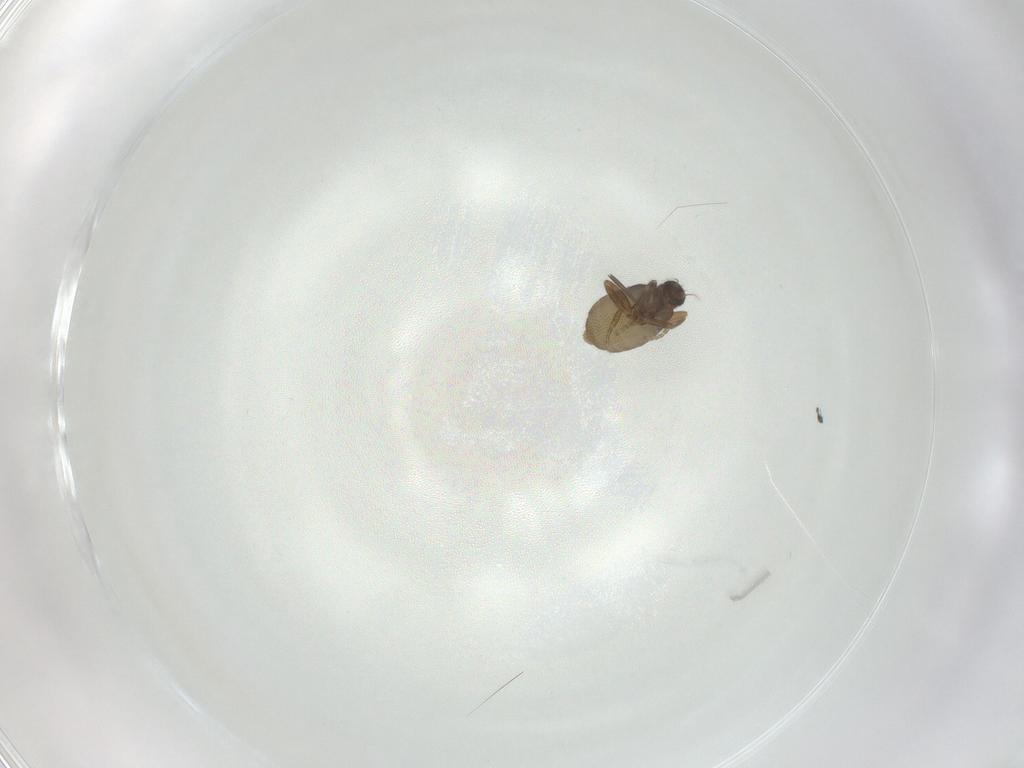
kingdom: Animalia
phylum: Arthropoda
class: Insecta
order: Diptera
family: Phoridae
